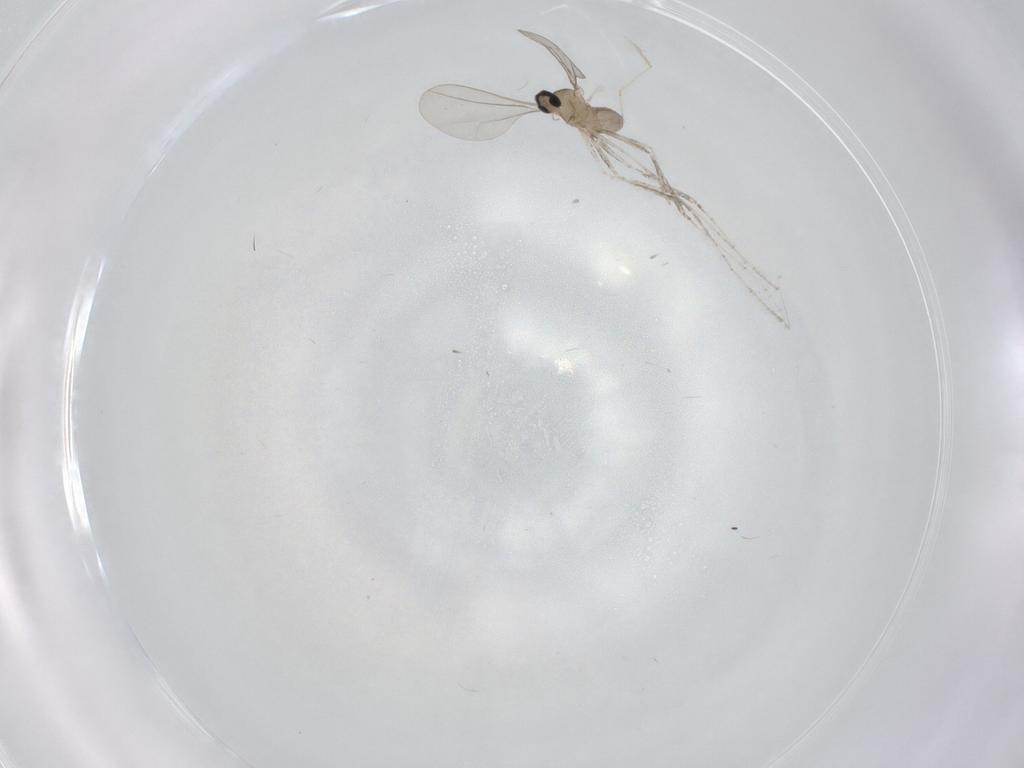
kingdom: Animalia
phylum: Arthropoda
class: Insecta
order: Diptera
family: Cecidomyiidae
